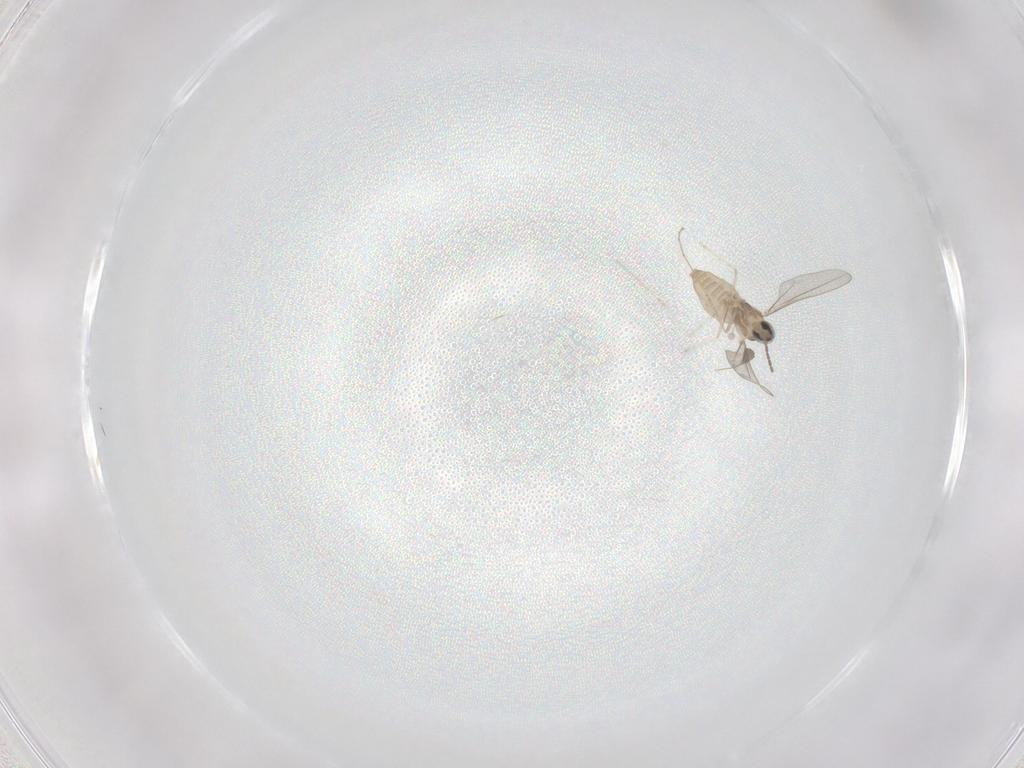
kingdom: Animalia
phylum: Arthropoda
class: Insecta
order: Diptera
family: Cecidomyiidae
